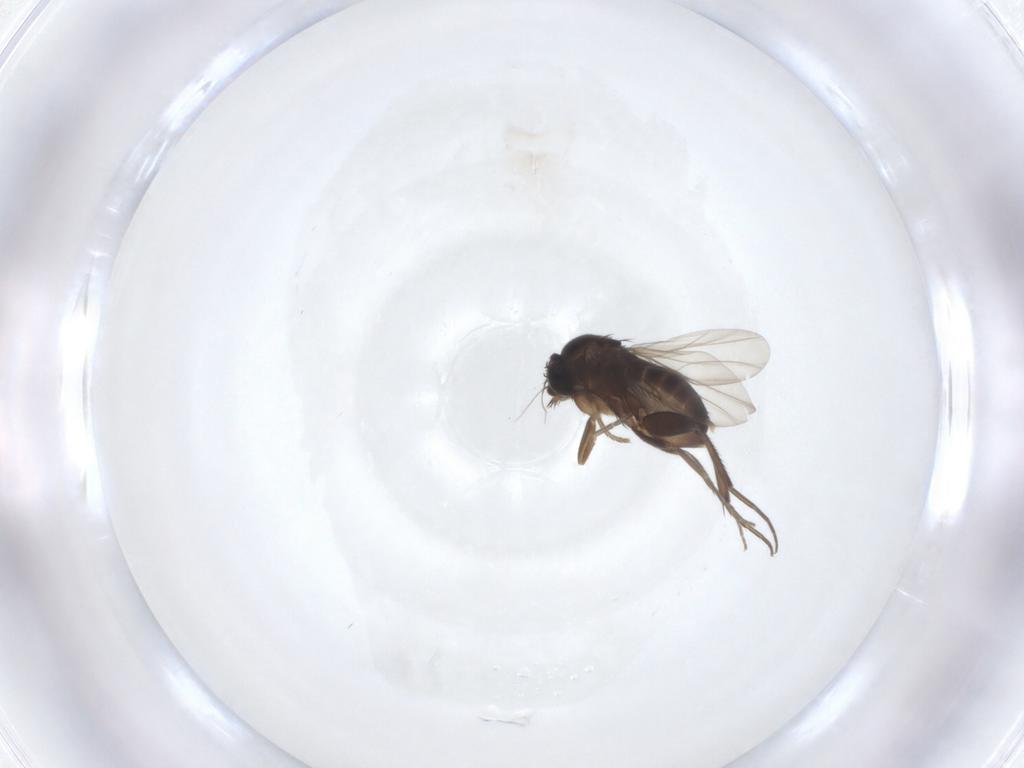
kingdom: Animalia
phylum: Arthropoda
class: Insecta
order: Diptera
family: Phoridae
